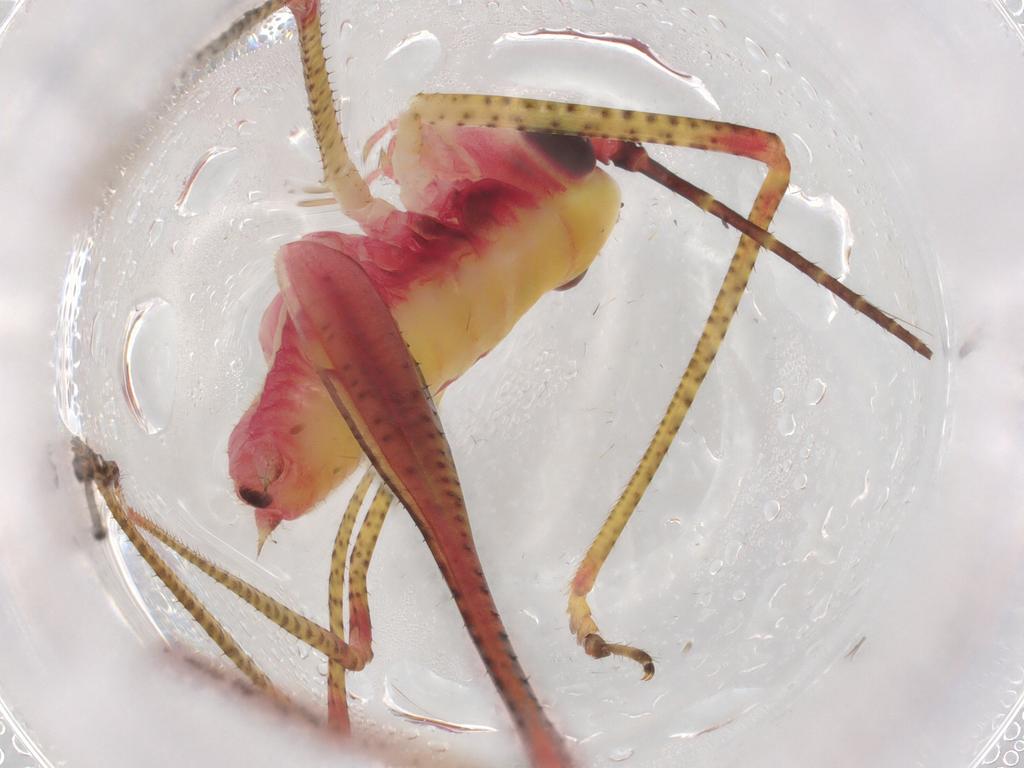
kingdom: Animalia
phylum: Arthropoda
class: Insecta
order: Orthoptera
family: Tettigoniidae
